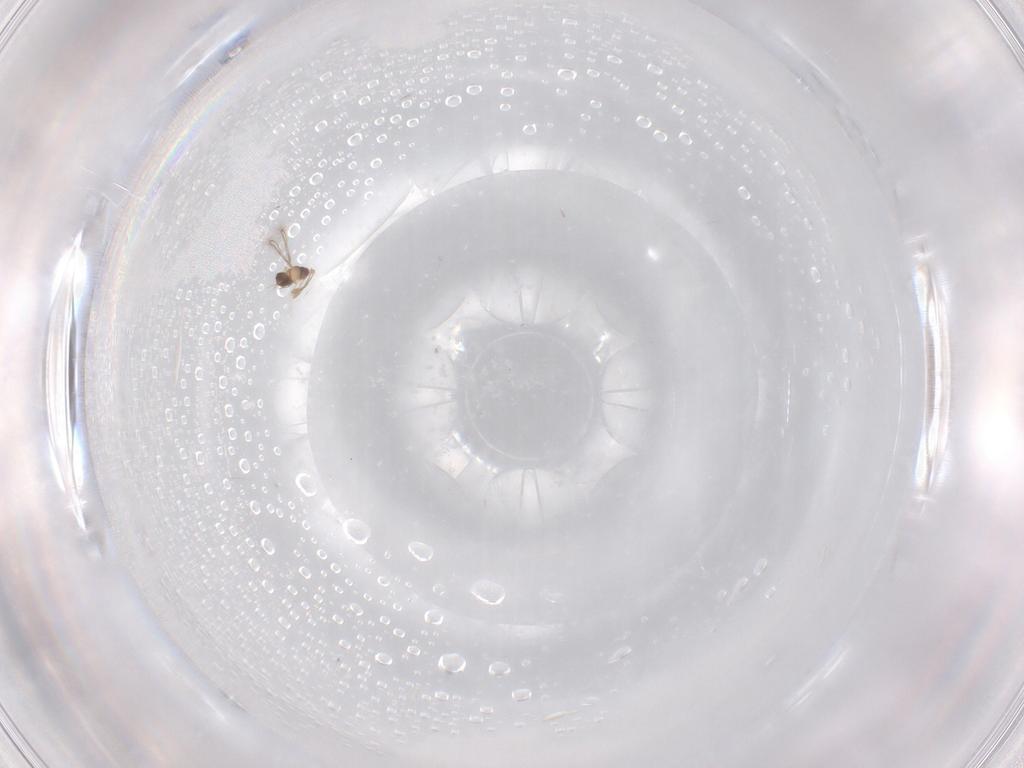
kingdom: Animalia
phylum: Arthropoda
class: Insecta
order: Hymenoptera
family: Mymaridae
